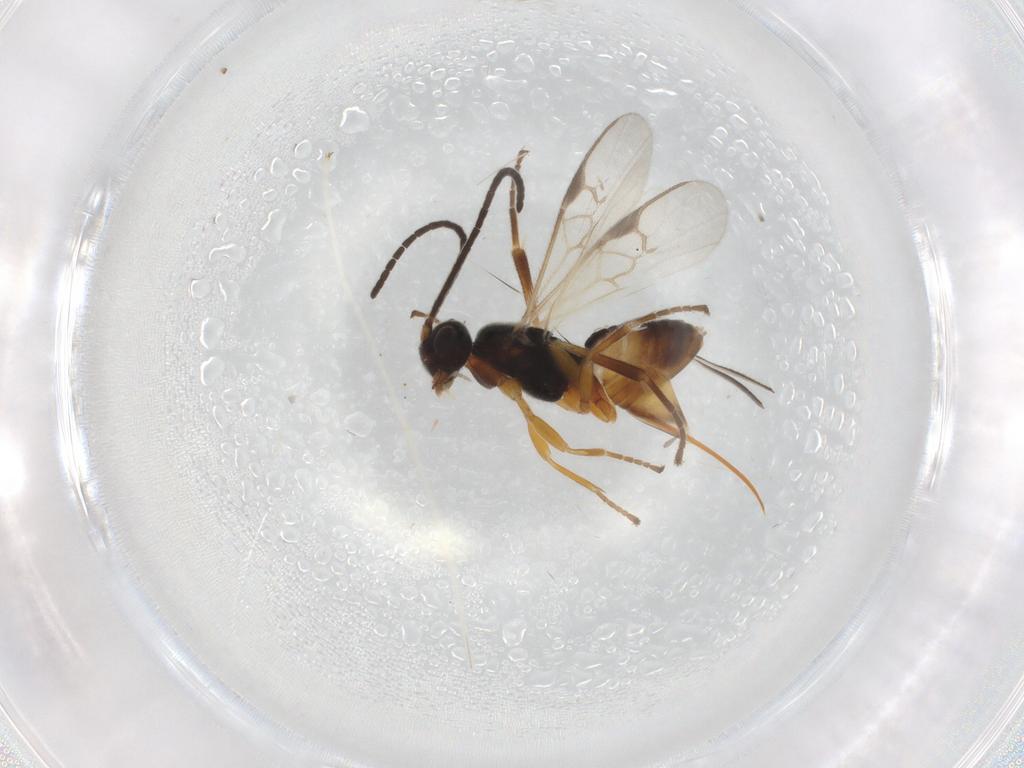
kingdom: Animalia
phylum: Arthropoda
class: Insecta
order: Hymenoptera
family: Braconidae
